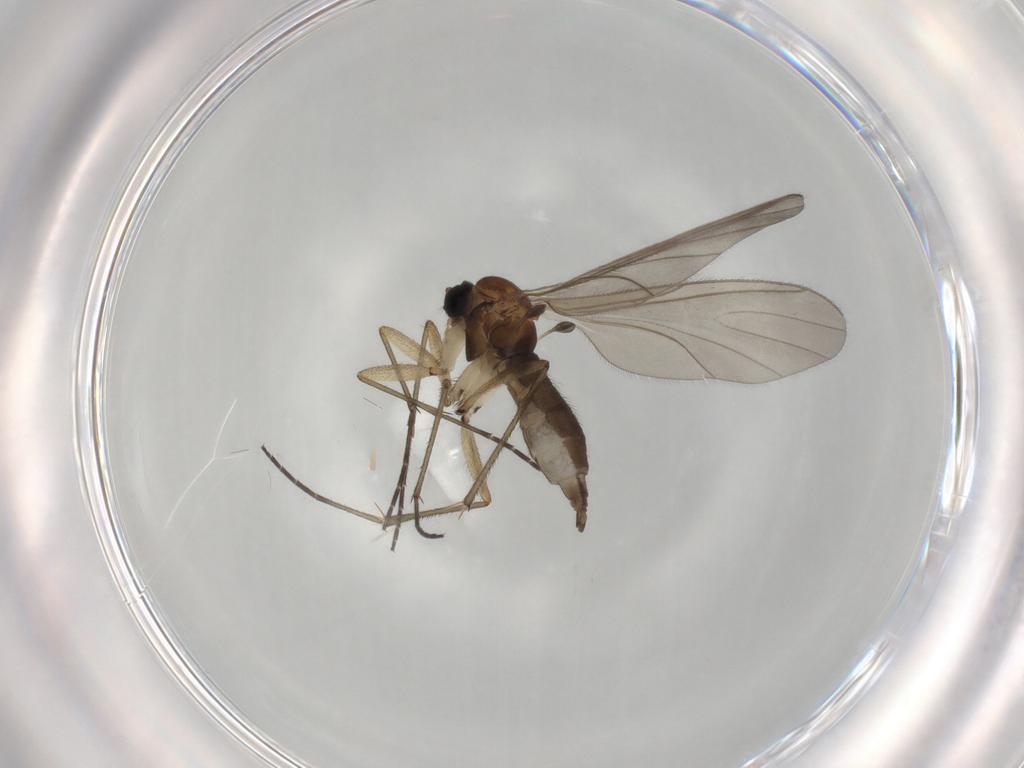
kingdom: Animalia
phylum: Arthropoda
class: Insecta
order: Diptera
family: Sciaridae
